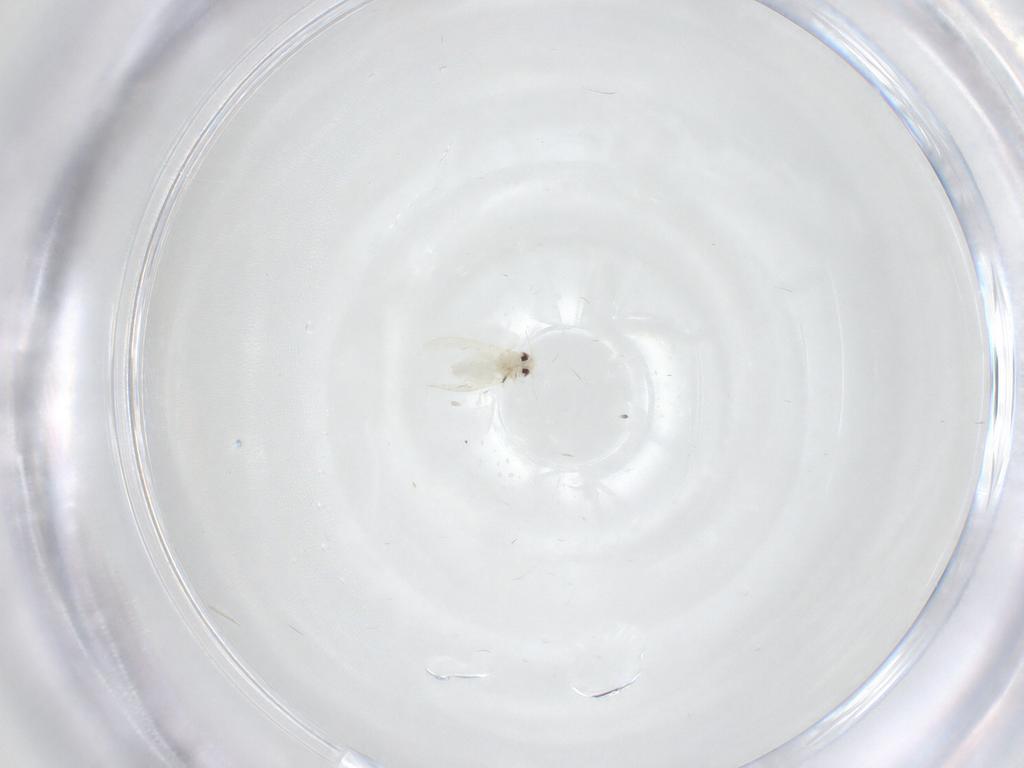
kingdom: Animalia
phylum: Arthropoda
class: Insecta
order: Hemiptera
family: Aleyrodidae
